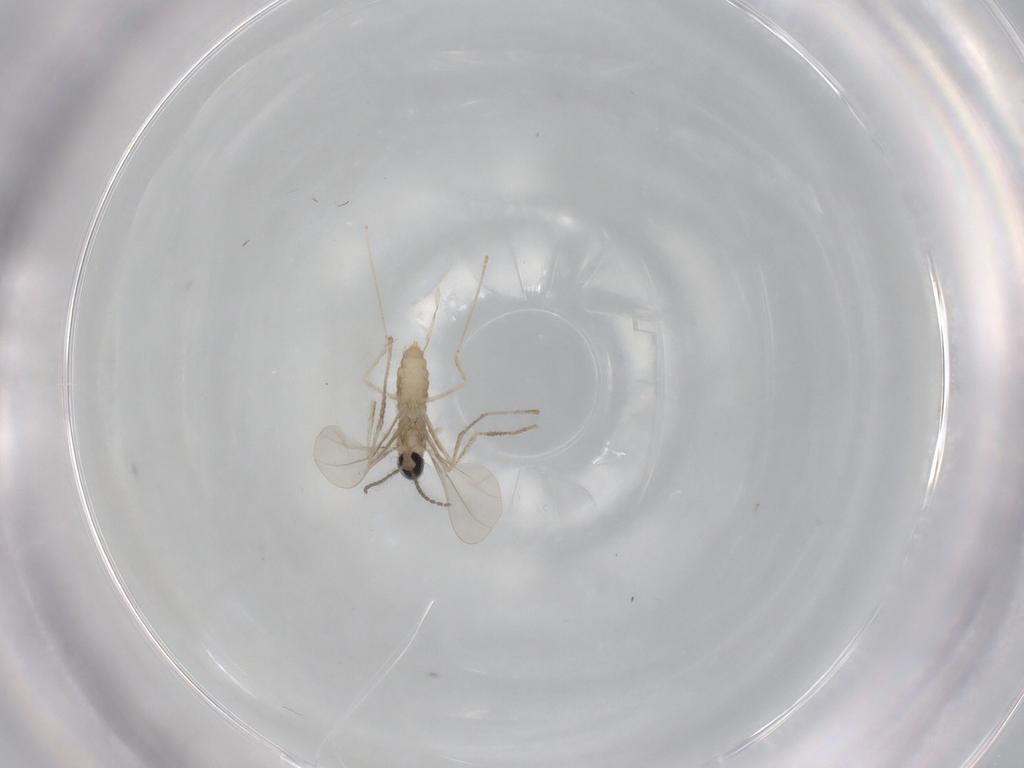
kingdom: Animalia
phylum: Arthropoda
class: Insecta
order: Diptera
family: Cecidomyiidae
